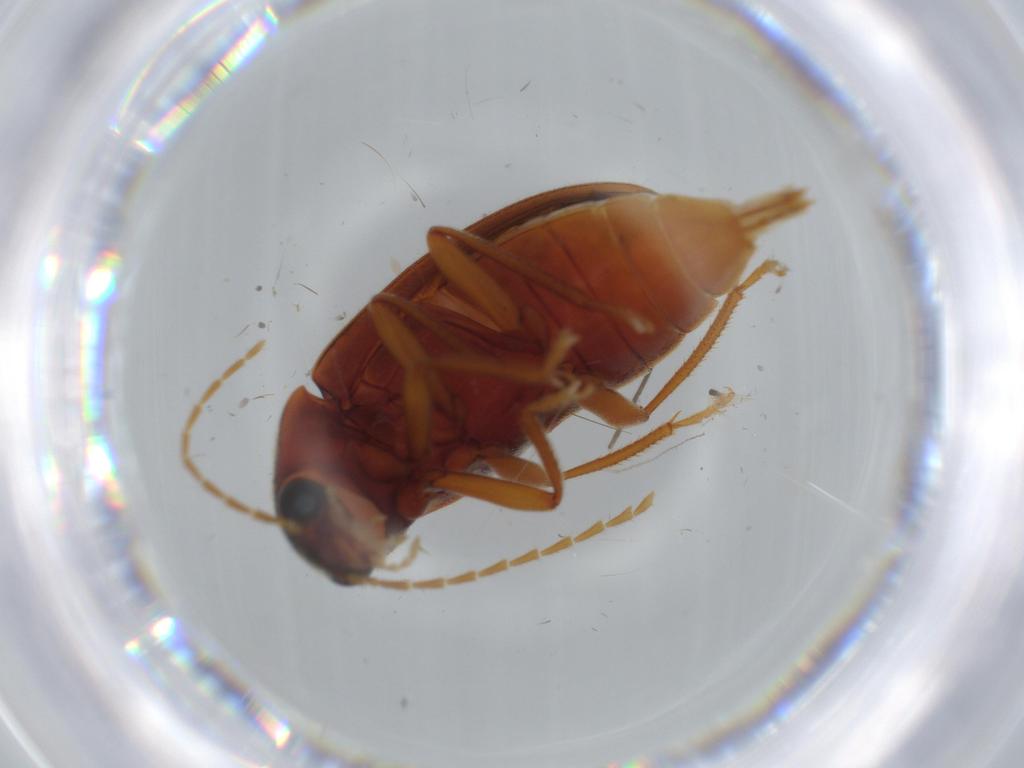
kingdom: Animalia
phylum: Arthropoda
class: Insecta
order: Coleoptera
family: Ptilodactylidae
